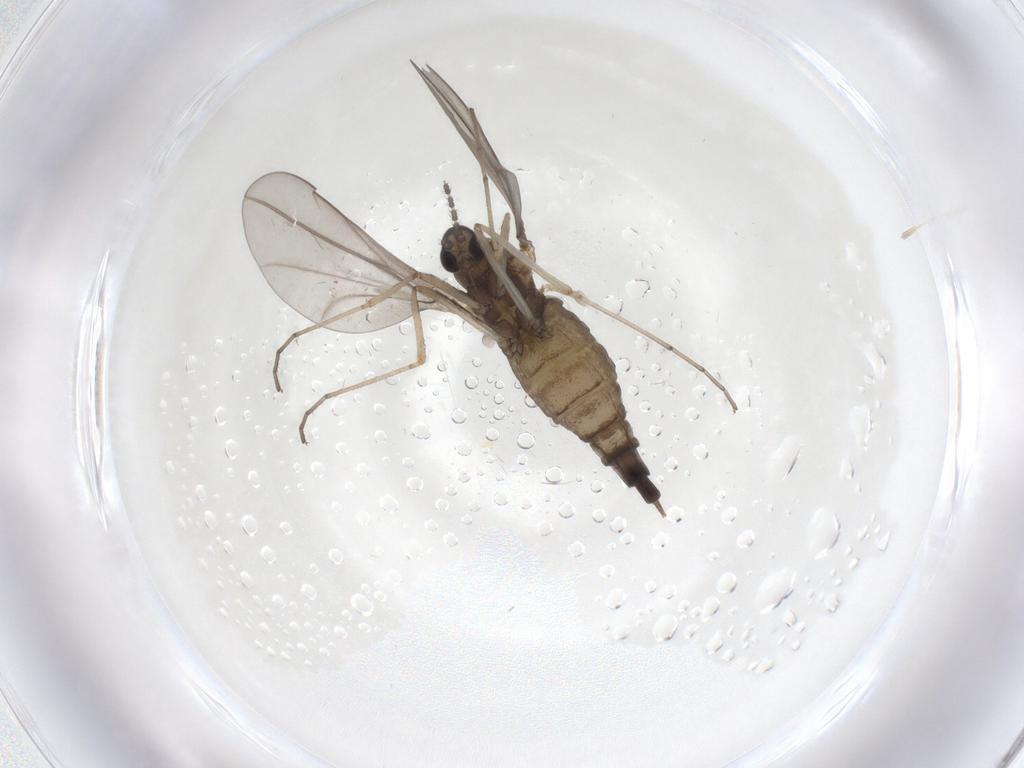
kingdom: Animalia
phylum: Arthropoda
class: Insecta
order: Diptera
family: Cecidomyiidae
